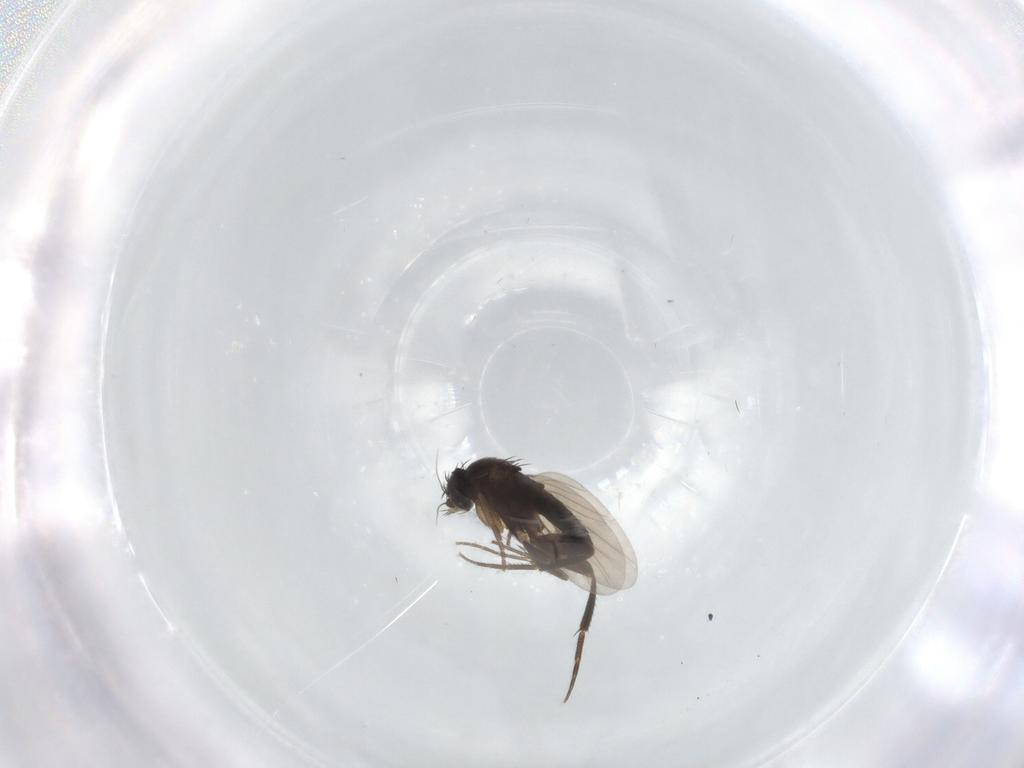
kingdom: Animalia
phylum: Arthropoda
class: Insecta
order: Diptera
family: Phoridae
